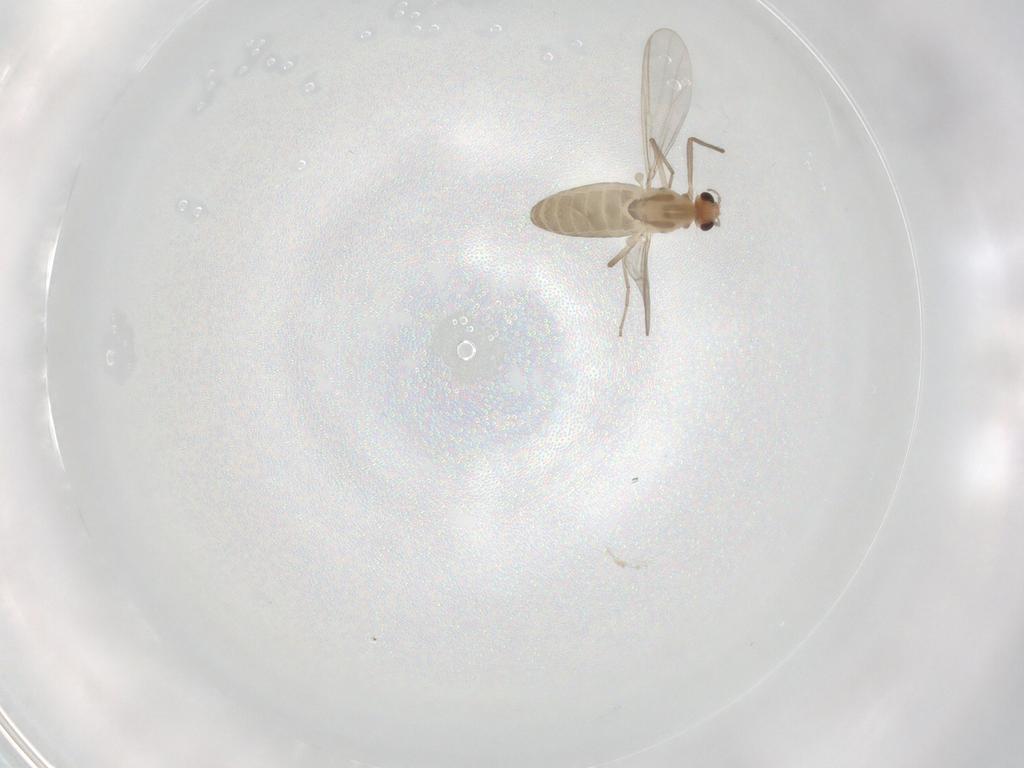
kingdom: Animalia
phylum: Arthropoda
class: Insecta
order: Diptera
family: Chironomidae
